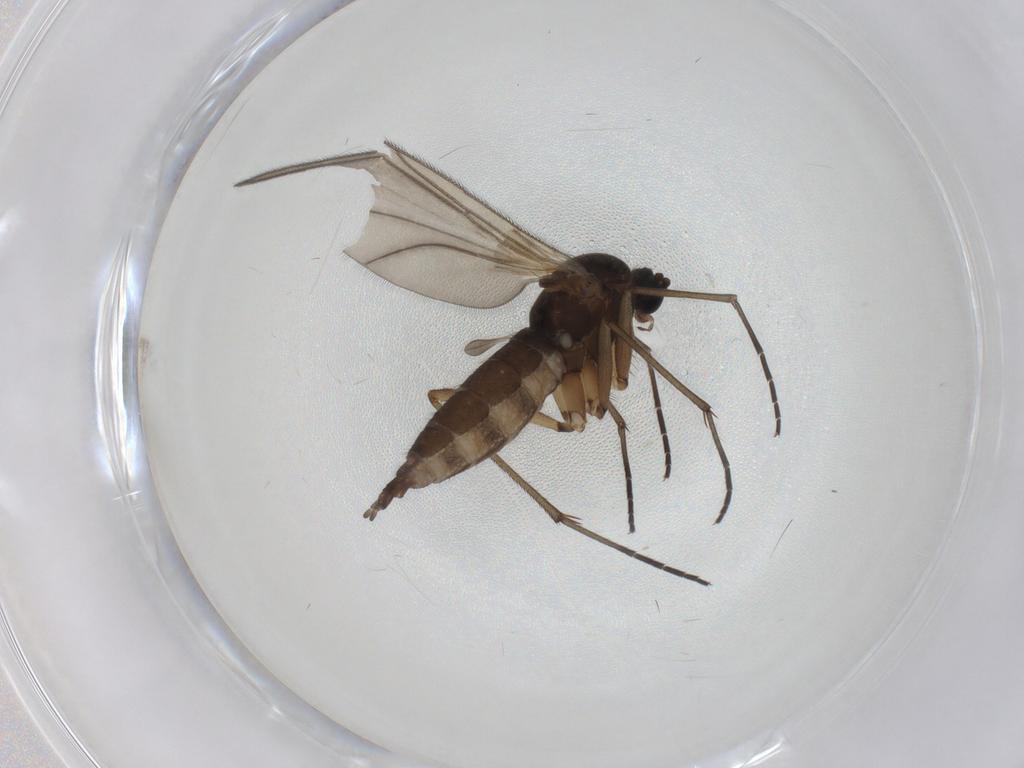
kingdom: Animalia
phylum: Arthropoda
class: Insecta
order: Diptera
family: Sciaridae
